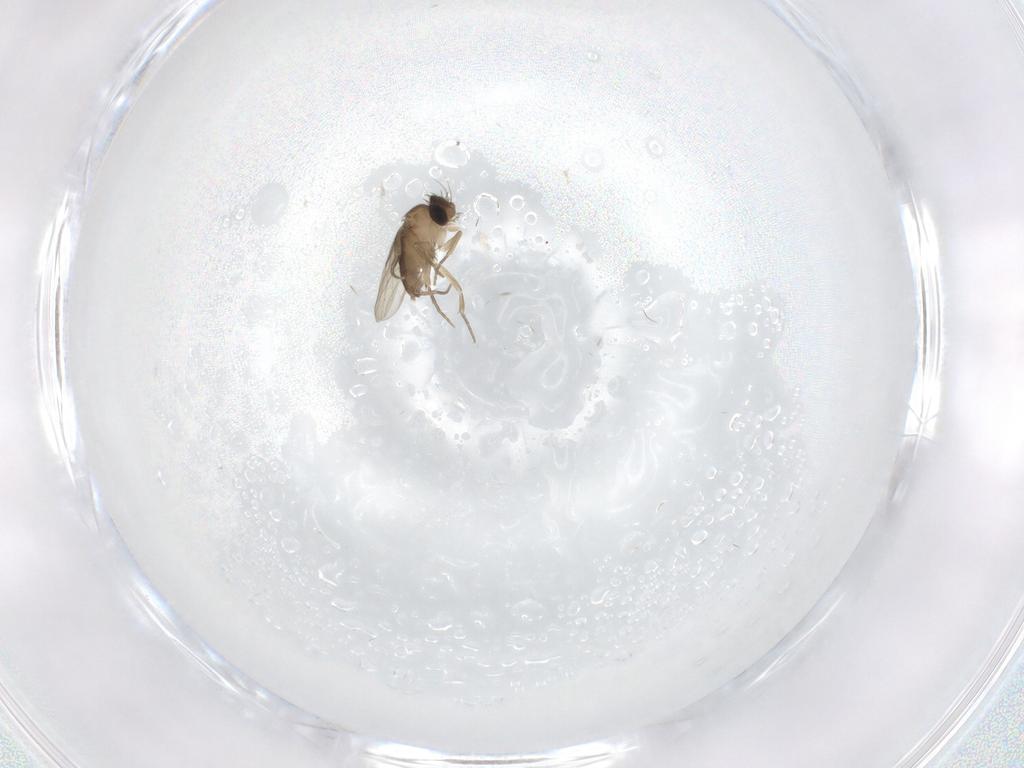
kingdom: Animalia
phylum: Arthropoda
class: Insecta
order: Diptera
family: Phoridae
